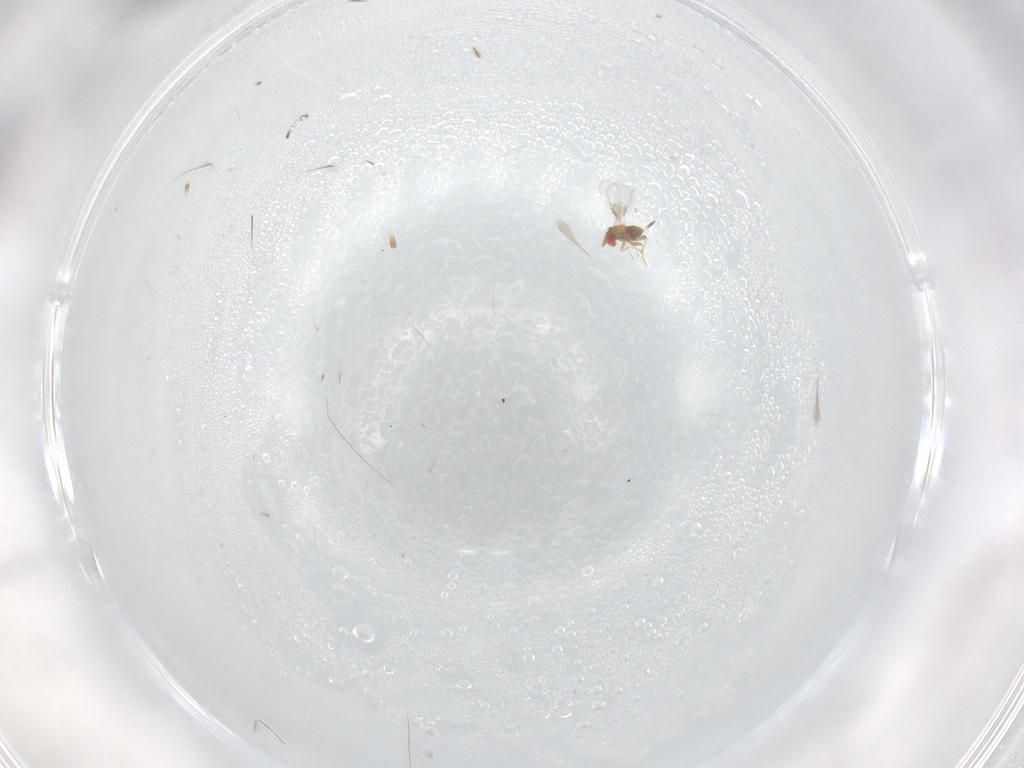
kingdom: Animalia
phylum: Arthropoda
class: Insecta
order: Hymenoptera
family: Trichogrammatidae
